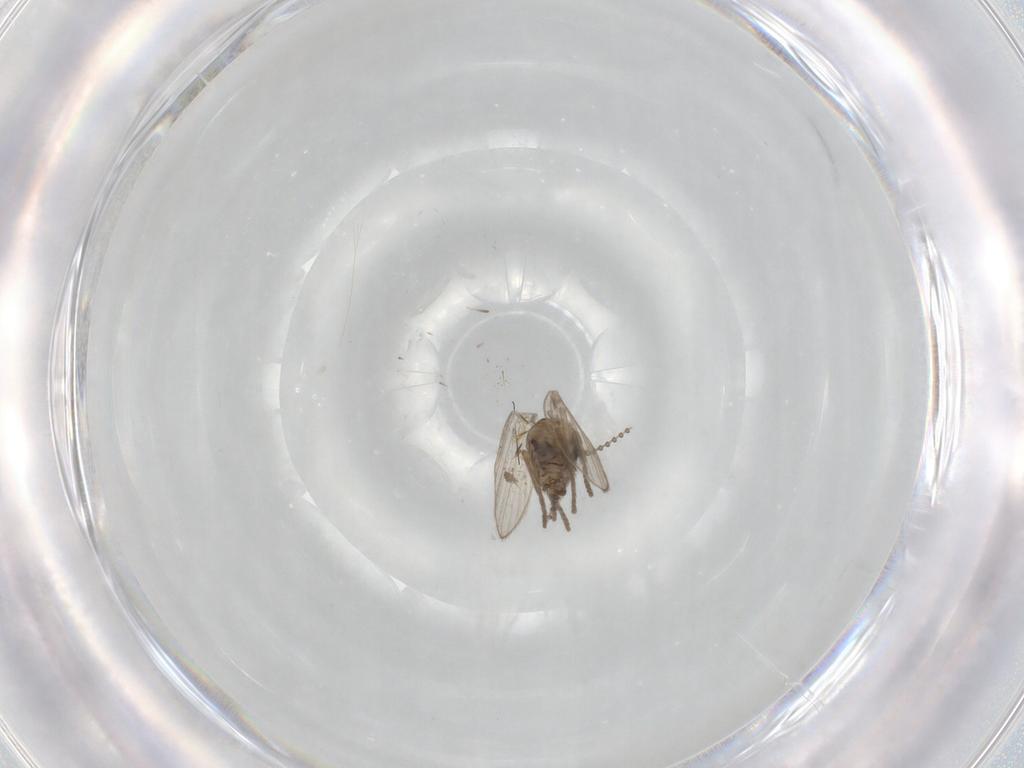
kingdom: Animalia
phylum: Arthropoda
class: Insecta
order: Diptera
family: Psychodidae
